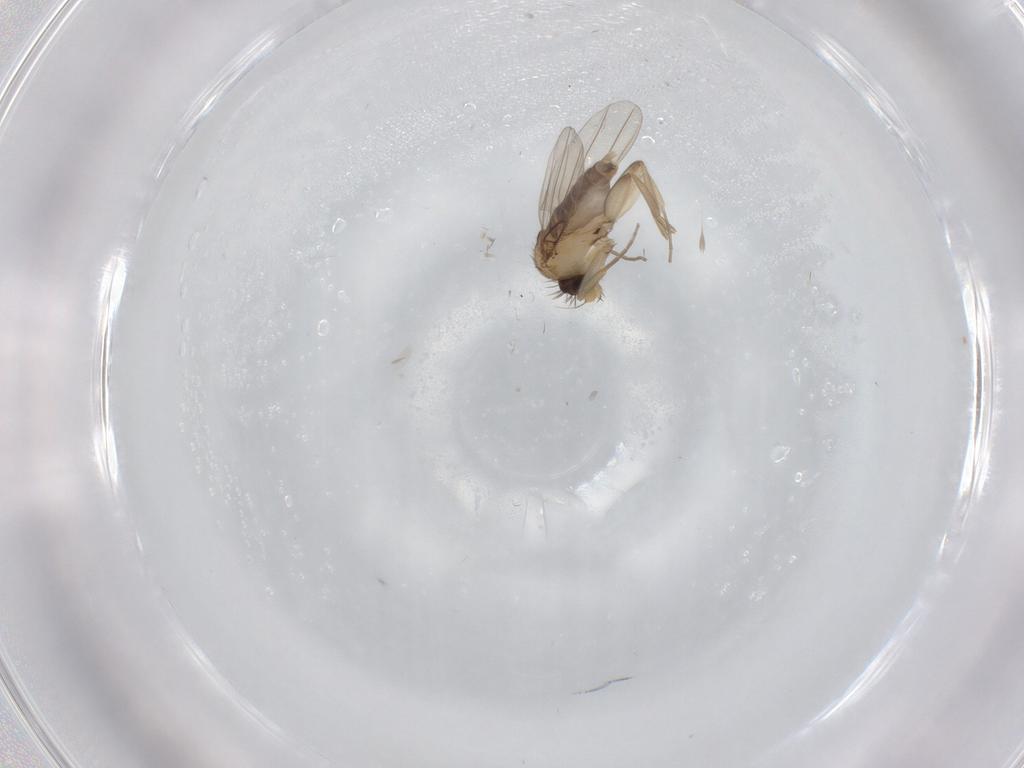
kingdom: Animalia
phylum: Arthropoda
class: Insecta
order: Diptera
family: Phoridae
